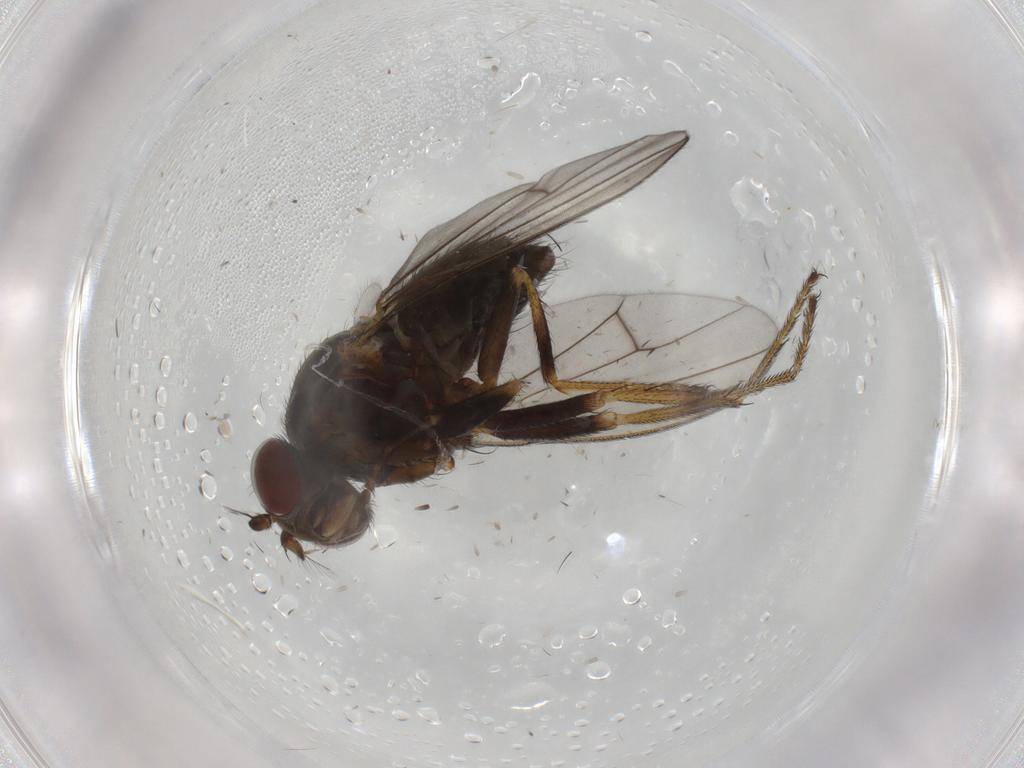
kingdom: Animalia
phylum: Arthropoda
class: Insecta
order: Diptera
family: Ephydridae
